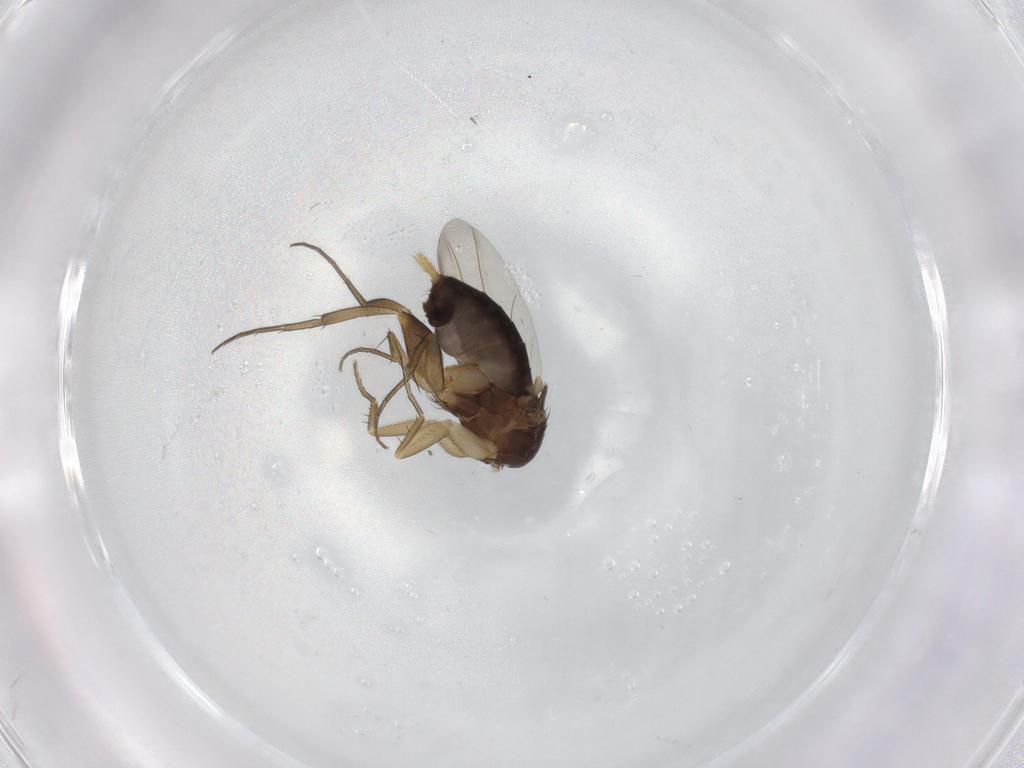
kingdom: Animalia
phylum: Arthropoda
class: Insecta
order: Diptera
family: Phoridae
